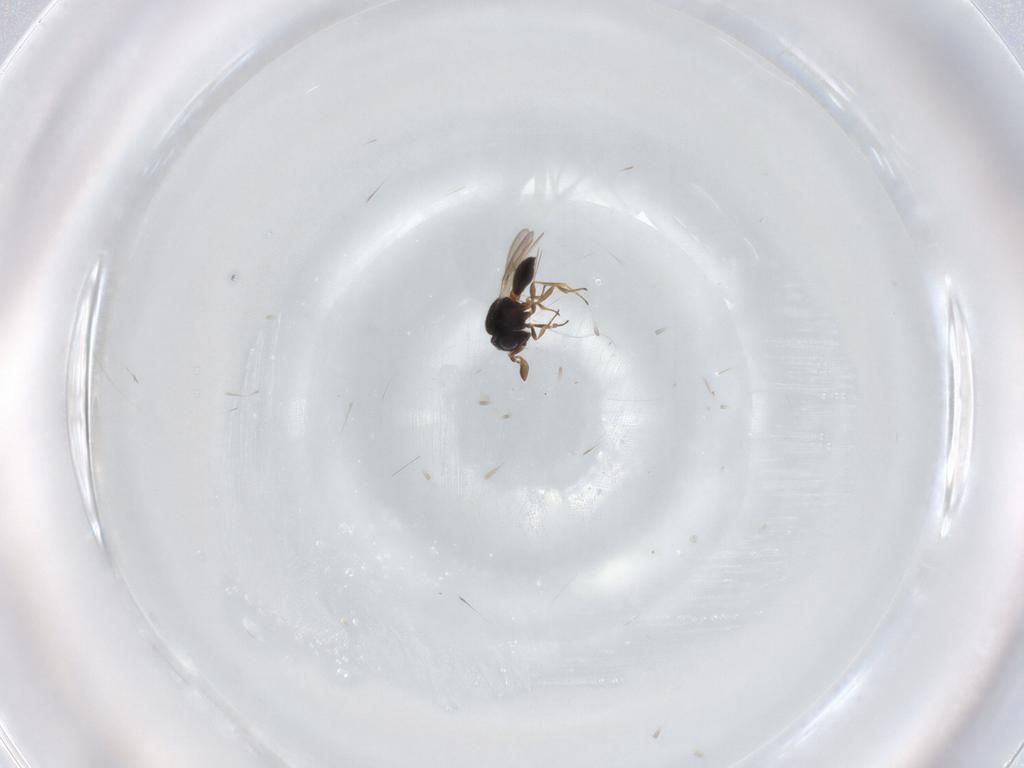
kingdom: Animalia
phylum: Arthropoda
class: Insecta
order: Hymenoptera
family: Scelionidae
